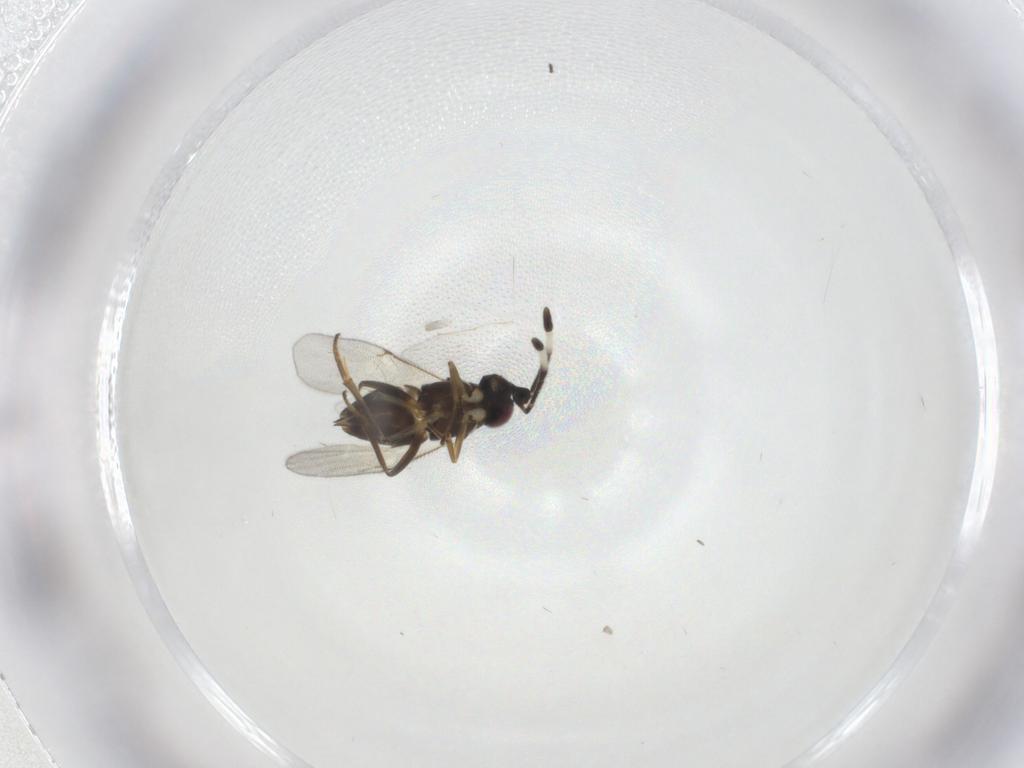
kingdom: Animalia
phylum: Arthropoda
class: Insecta
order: Hymenoptera
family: Encyrtidae
